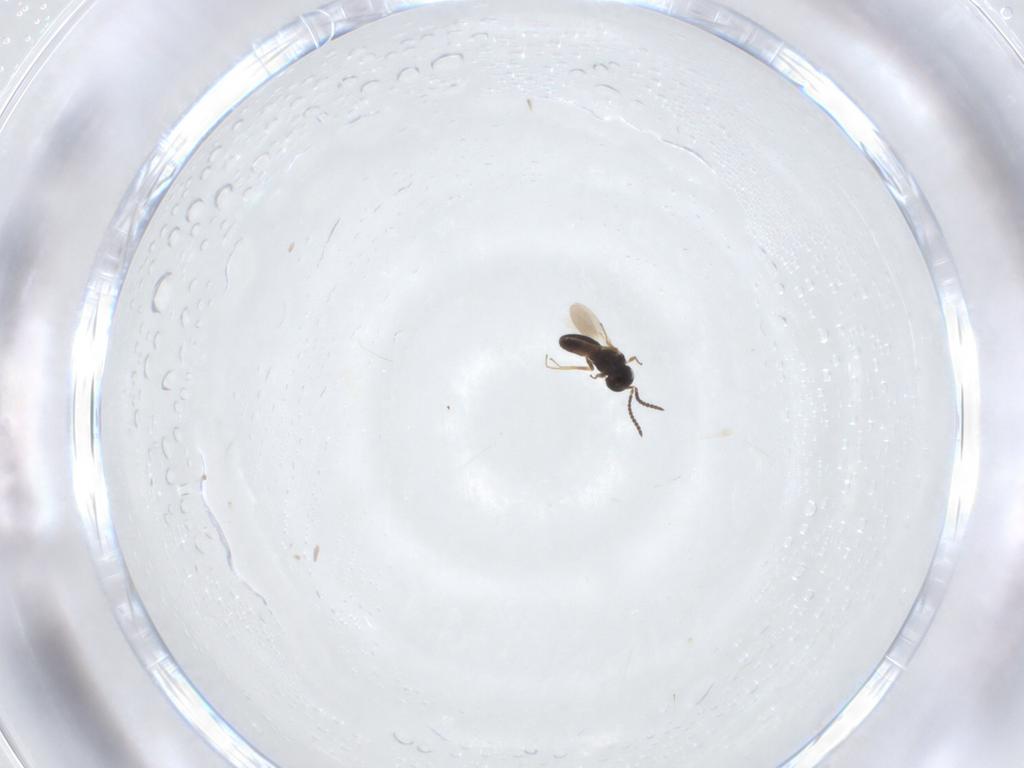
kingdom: Animalia
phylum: Arthropoda
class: Insecta
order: Hymenoptera
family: Scelionidae
